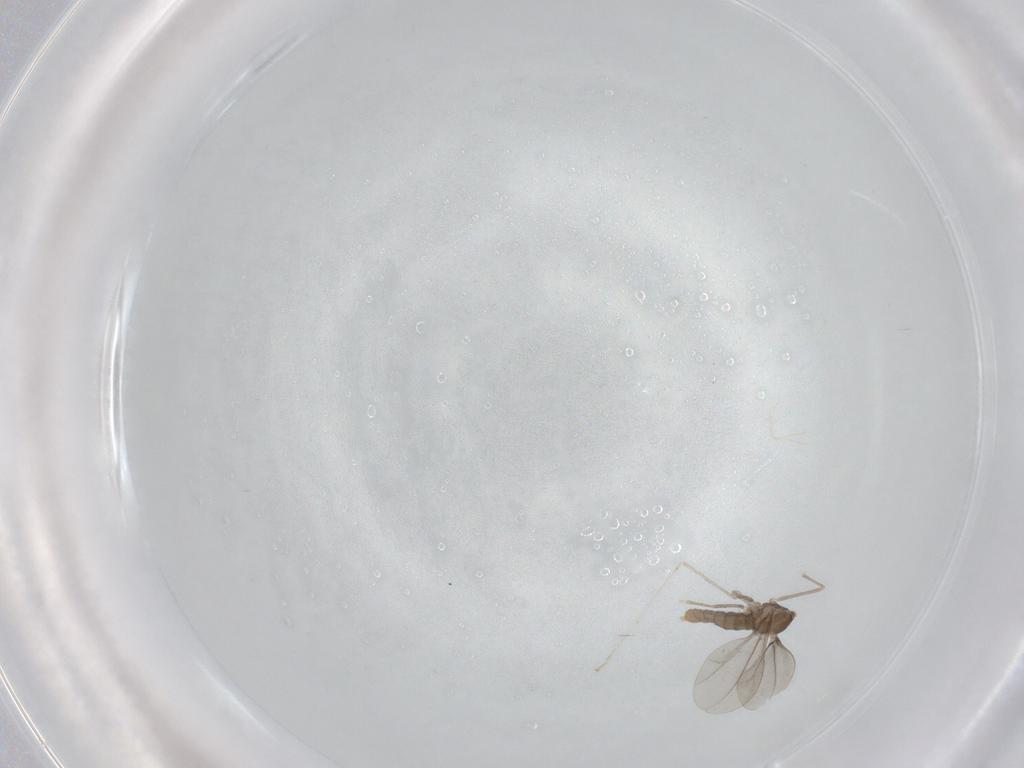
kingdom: Animalia
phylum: Arthropoda
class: Insecta
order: Diptera
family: Cecidomyiidae
